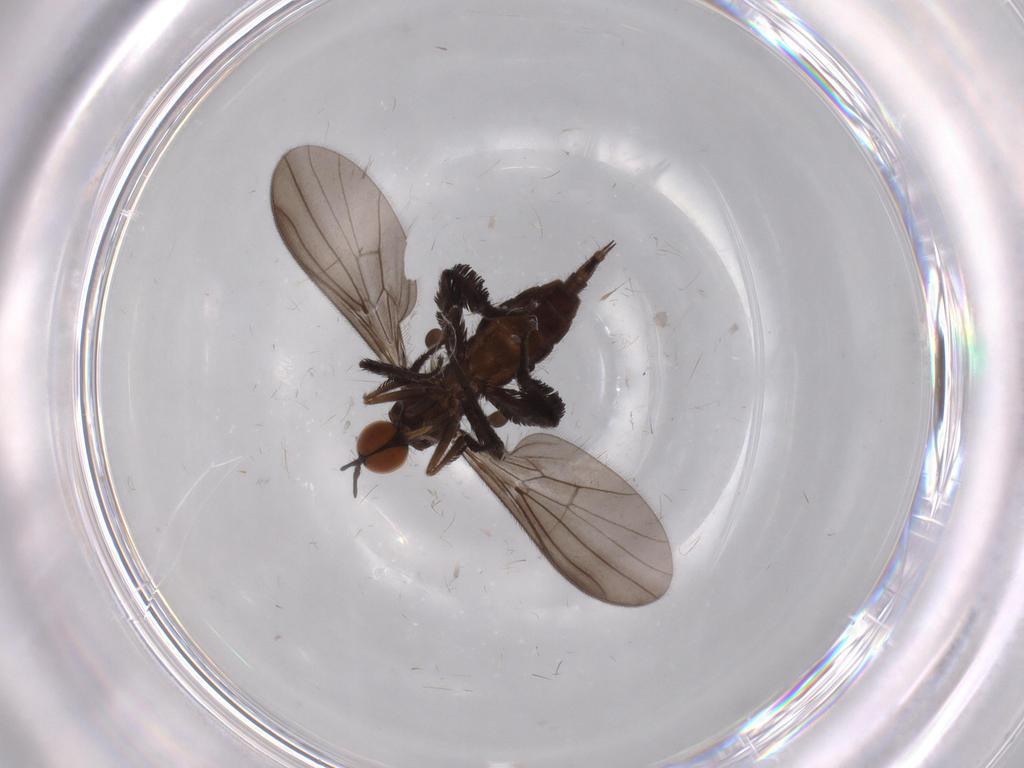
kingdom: Animalia
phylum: Arthropoda
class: Insecta
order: Diptera
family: Empididae
